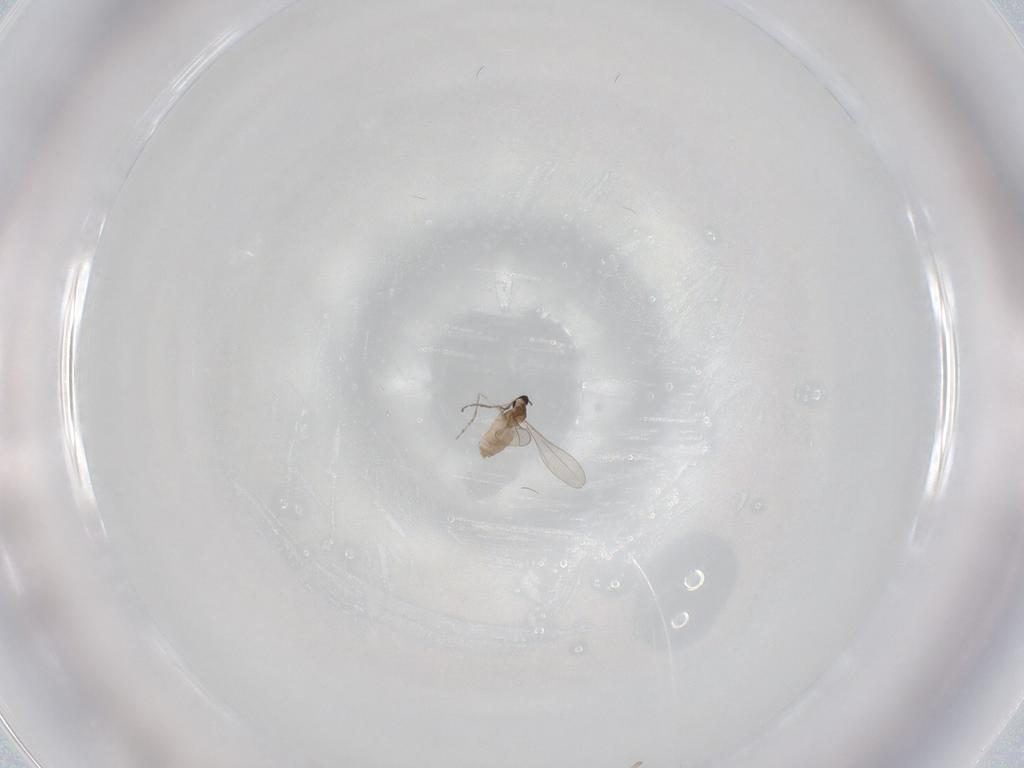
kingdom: Animalia
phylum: Arthropoda
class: Insecta
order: Diptera
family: Cecidomyiidae
